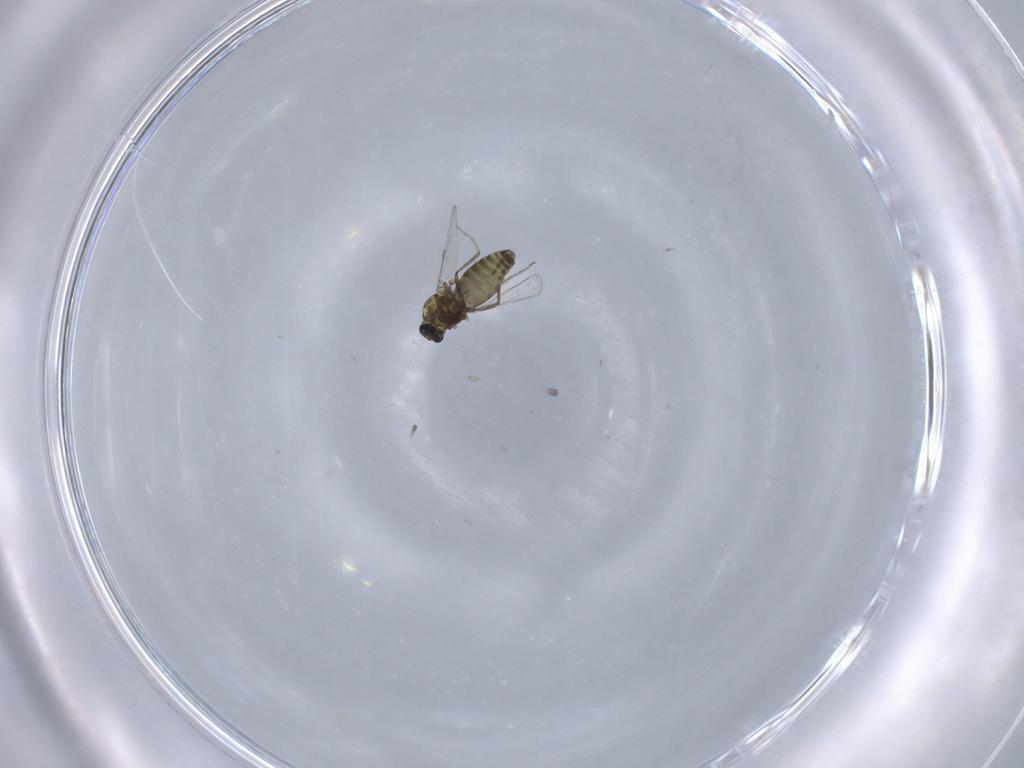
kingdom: Animalia
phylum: Arthropoda
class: Insecta
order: Diptera
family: Ceratopogonidae
